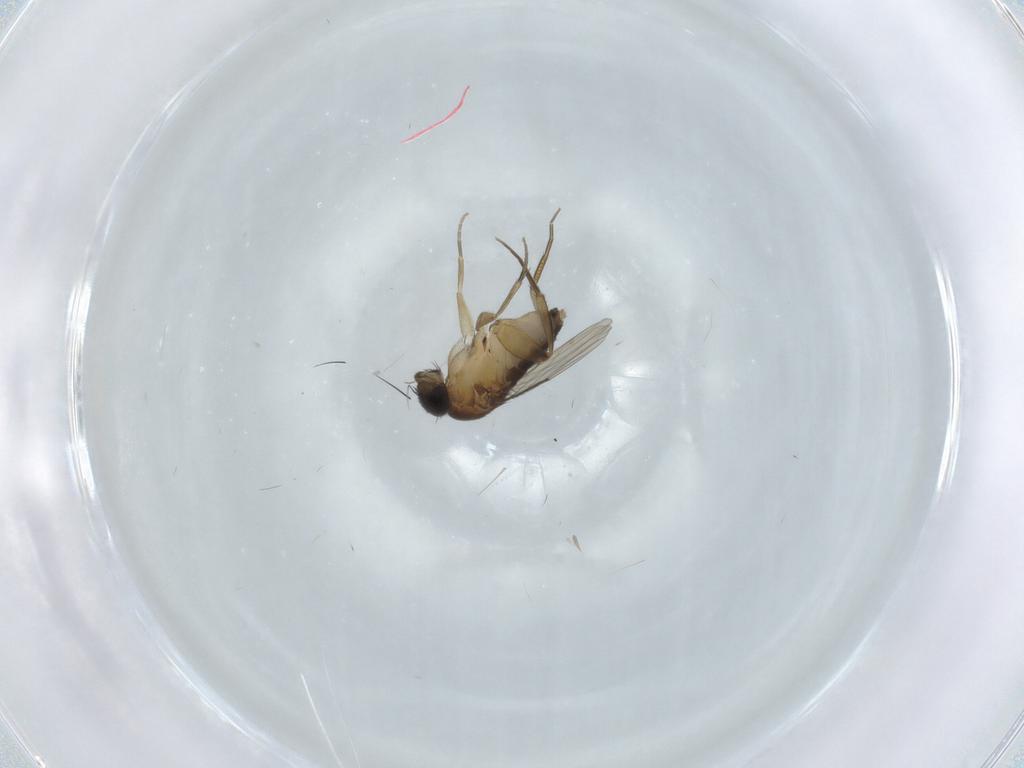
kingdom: Animalia
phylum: Arthropoda
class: Insecta
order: Diptera
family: Phoridae
